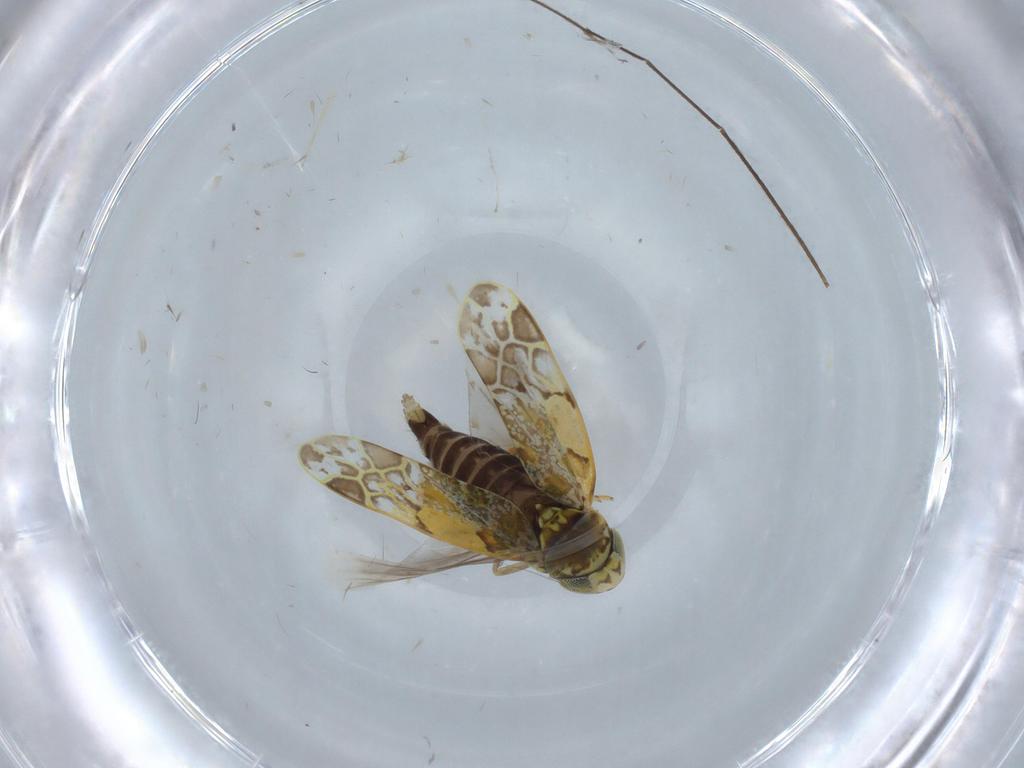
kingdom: Animalia
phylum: Arthropoda
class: Insecta
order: Hemiptera
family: Cicadellidae
